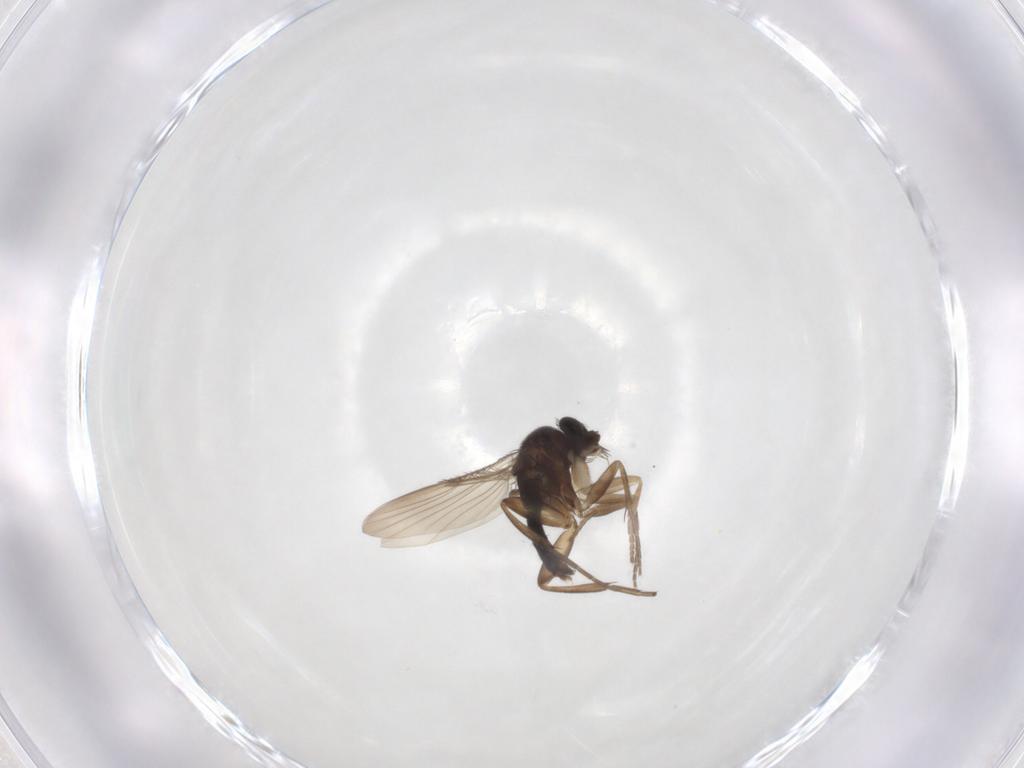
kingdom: Animalia
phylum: Arthropoda
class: Insecta
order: Diptera
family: Phoridae
